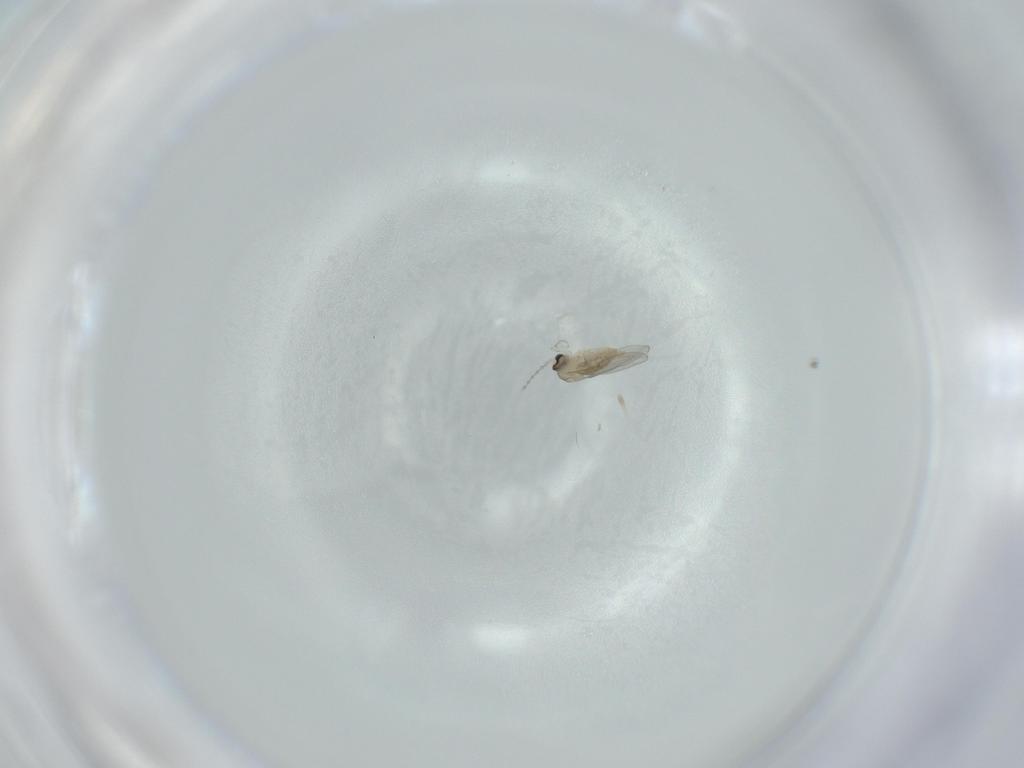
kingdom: Animalia
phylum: Arthropoda
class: Insecta
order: Diptera
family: Cecidomyiidae
